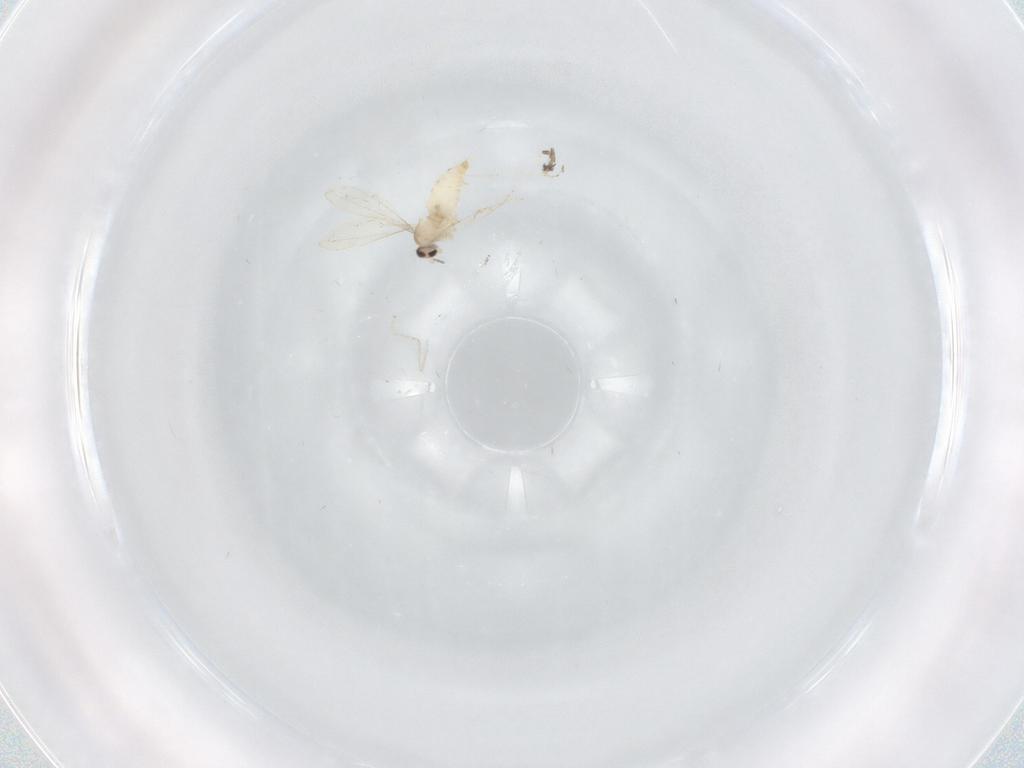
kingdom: Animalia
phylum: Arthropoda
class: Insecta
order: Diptera
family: Cecidomyiidae
